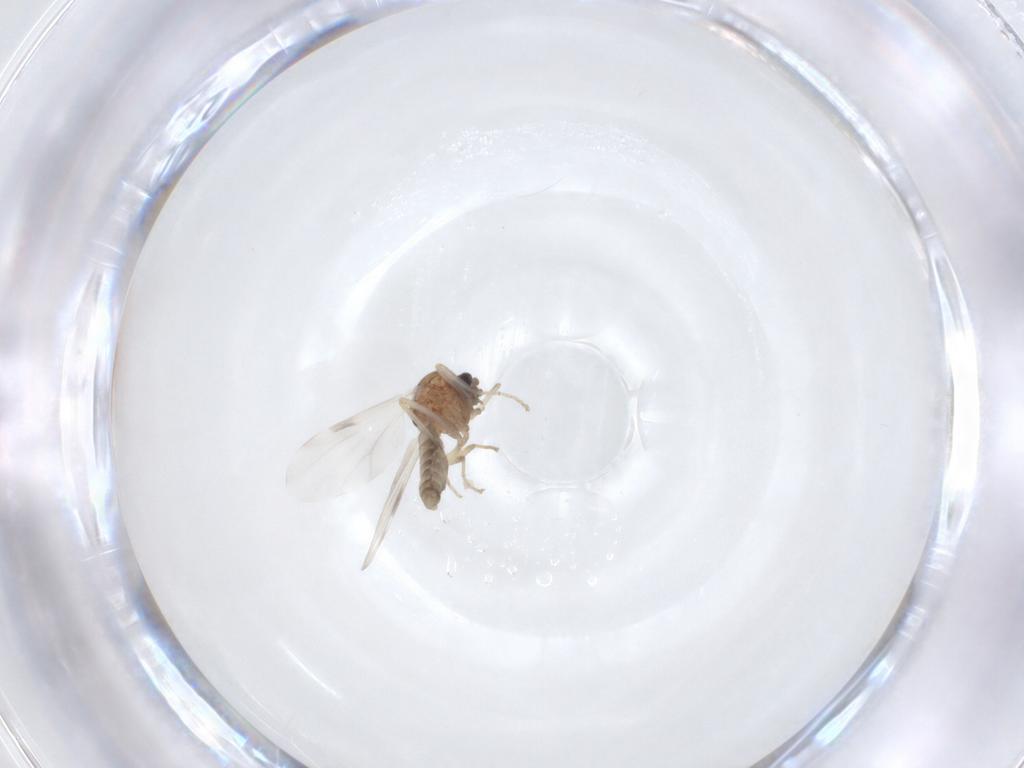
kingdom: Animalia
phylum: Arthropoda
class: Insecta
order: Diptera
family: Ceratopogonidae
